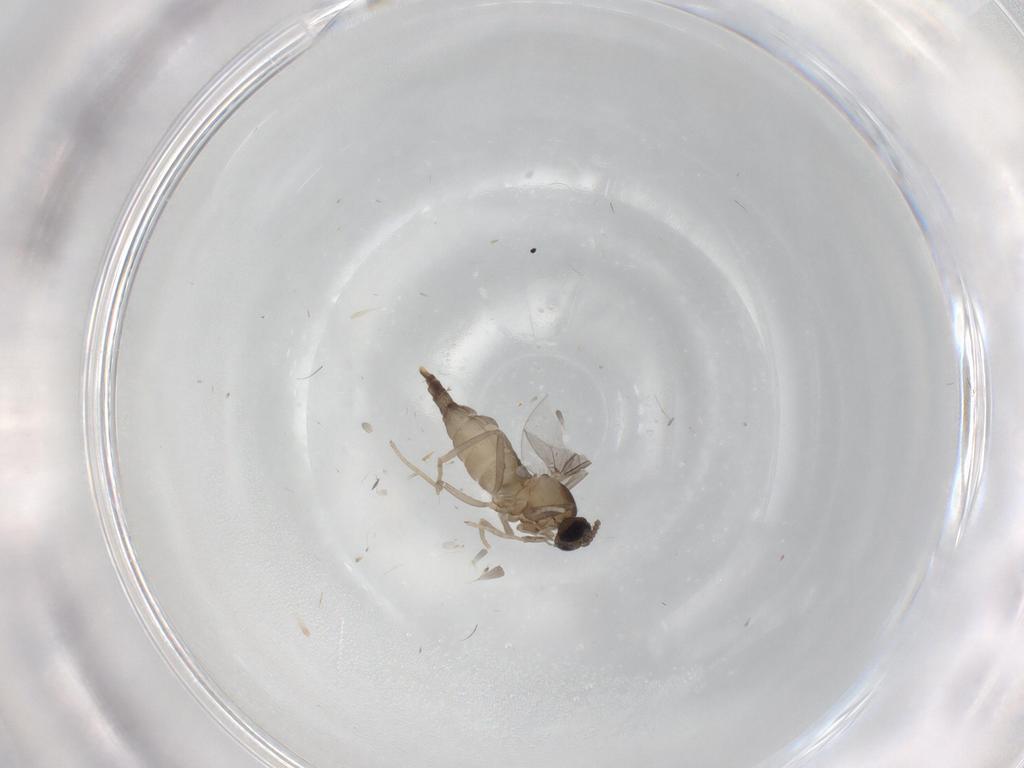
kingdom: Animalia
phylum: Arthropoda
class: Insecta
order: Diptera
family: Cecidomyiidae
